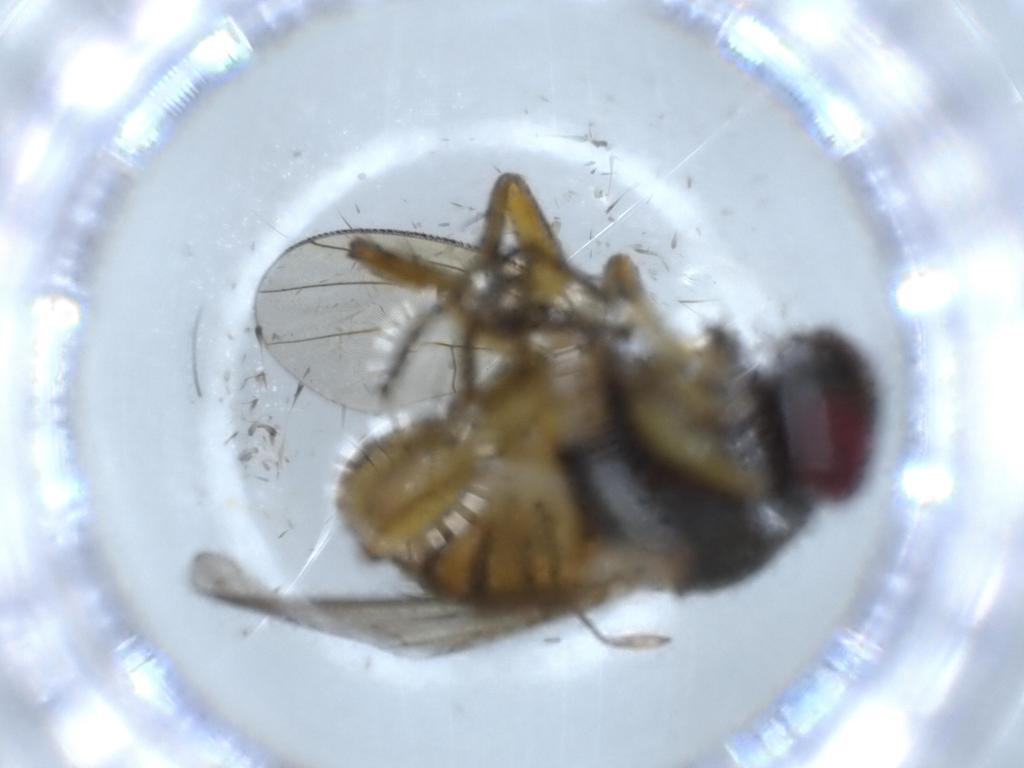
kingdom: Animalia
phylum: Arthropoda
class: Insecta
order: Diptera
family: Muscidae
